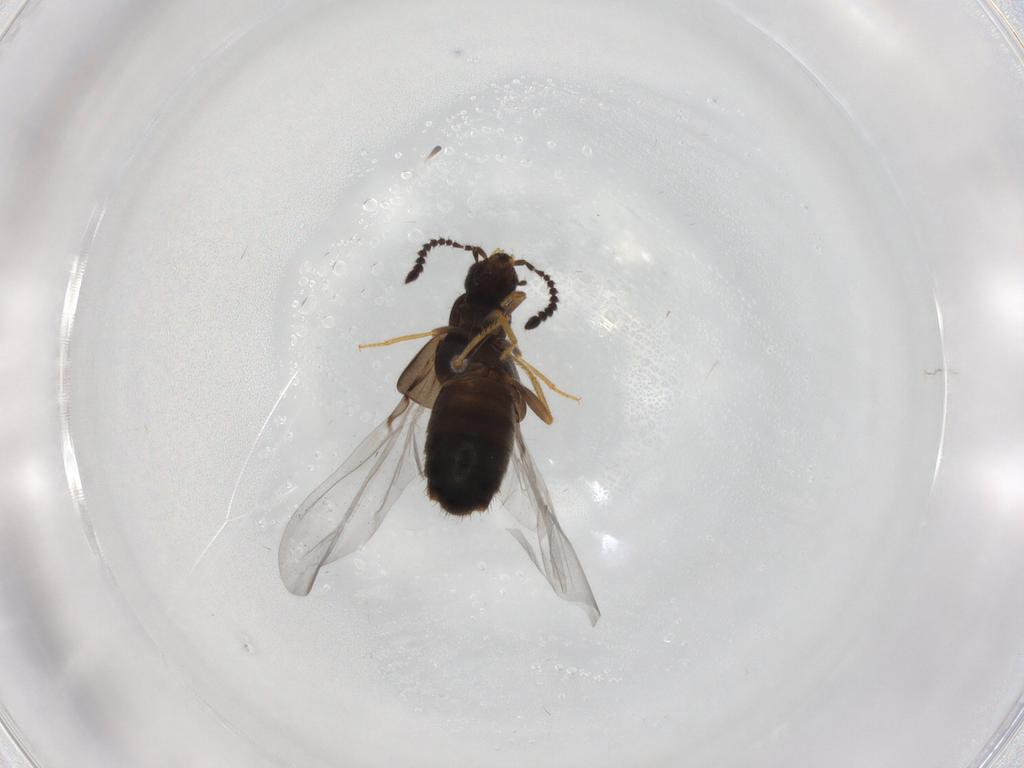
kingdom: Animalia
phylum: Arthropoda
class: Insecta
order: Coleoptera
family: Staphylinidae
